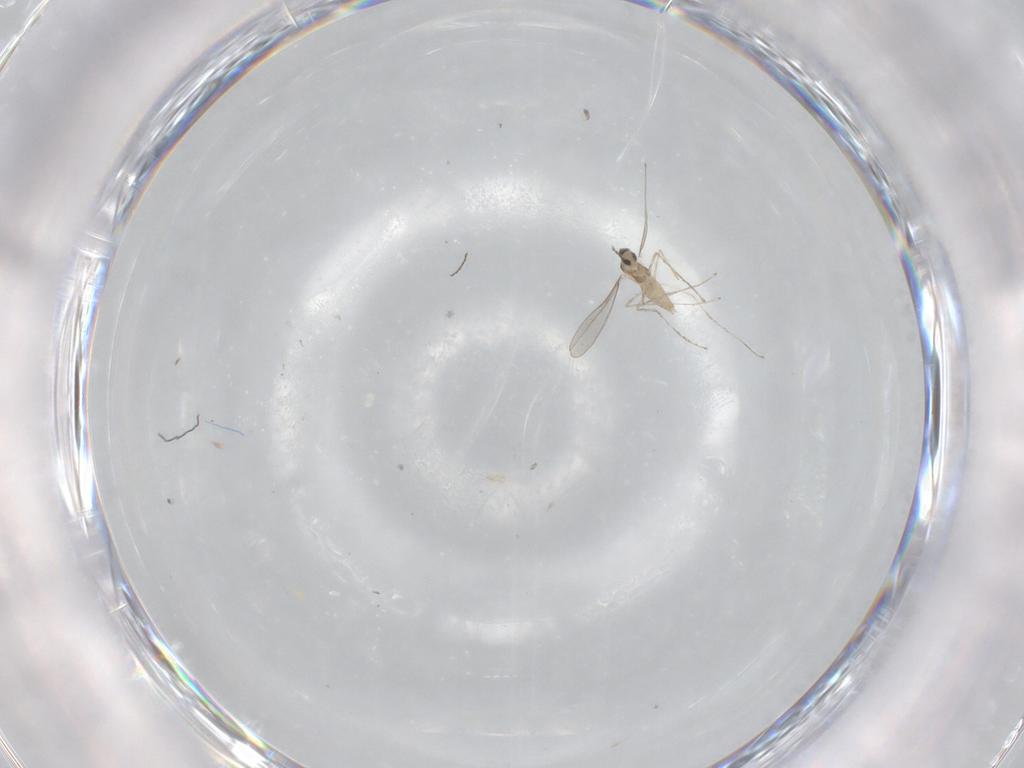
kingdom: Animalia
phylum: Arthropoda
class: Insecta
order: Diptera
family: Cecidomyiidae
